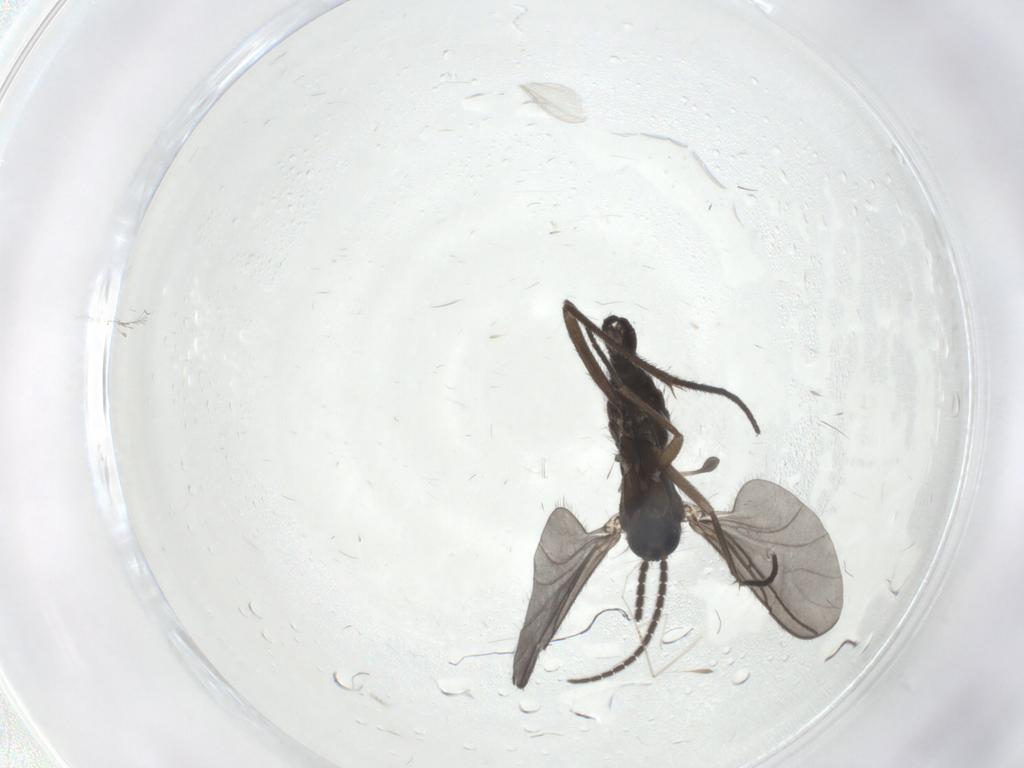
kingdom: Animalia
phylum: Arthropoda
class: Insecta
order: Diptera
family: Sciaridae
